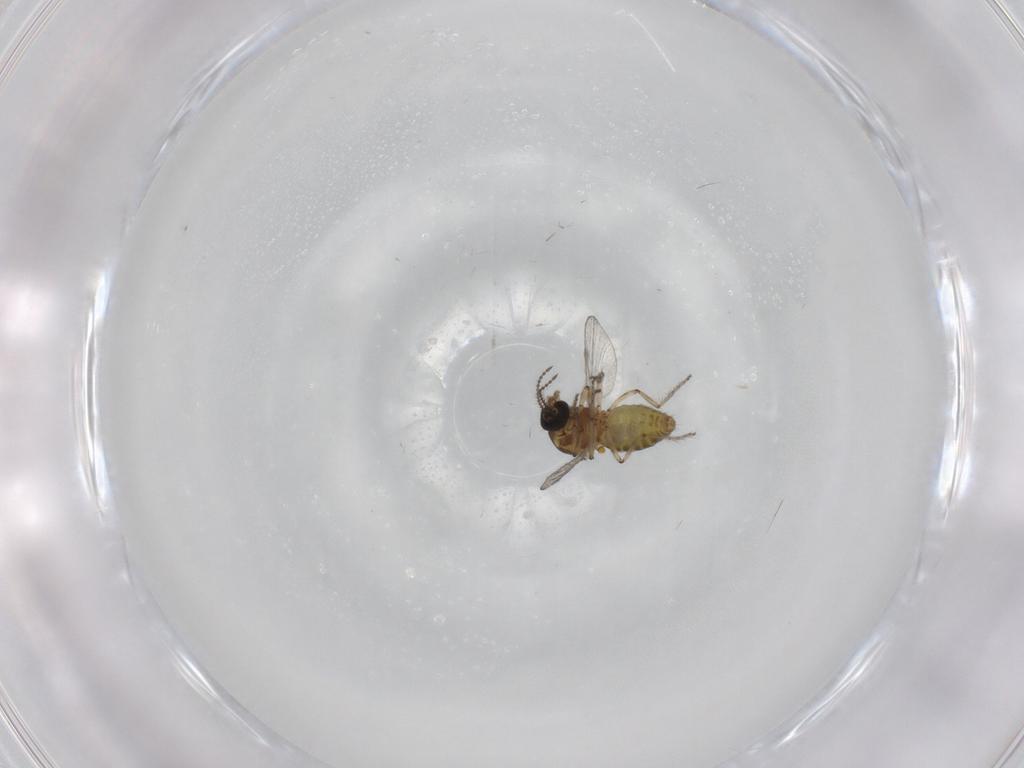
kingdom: Animalia
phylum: Arthropoda
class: Insecta
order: Diptera
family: Ceratopogonidae
